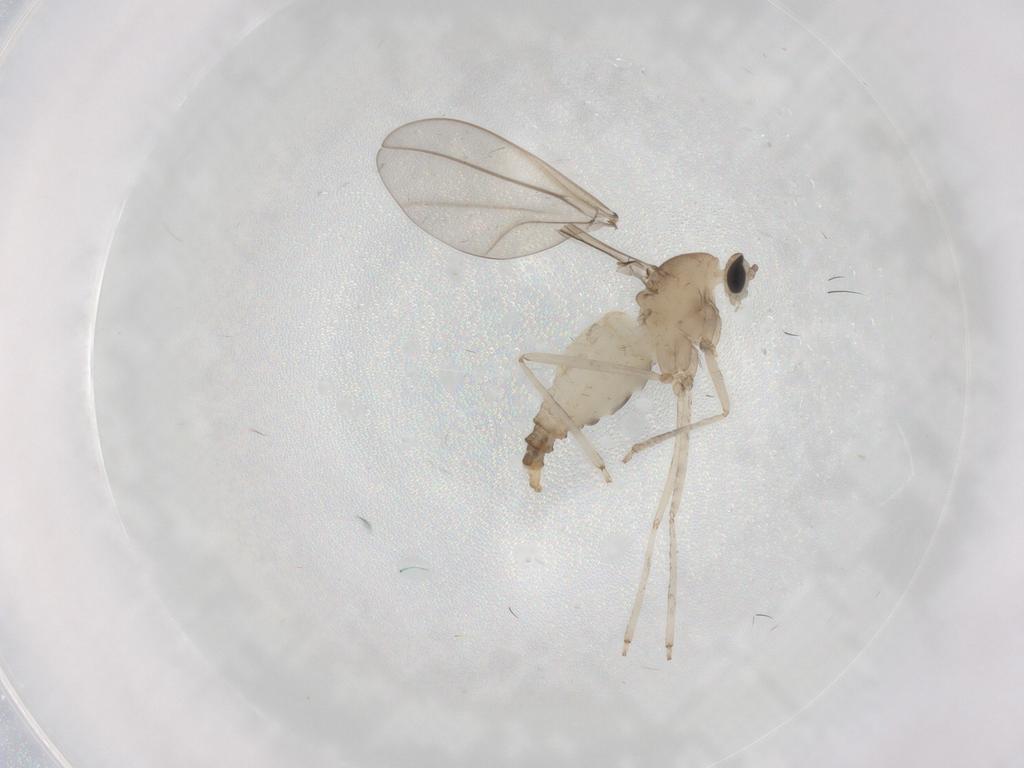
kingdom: Animalia
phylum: Arthropoda
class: Insecta
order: Diptera
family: Cecidomyiidae
